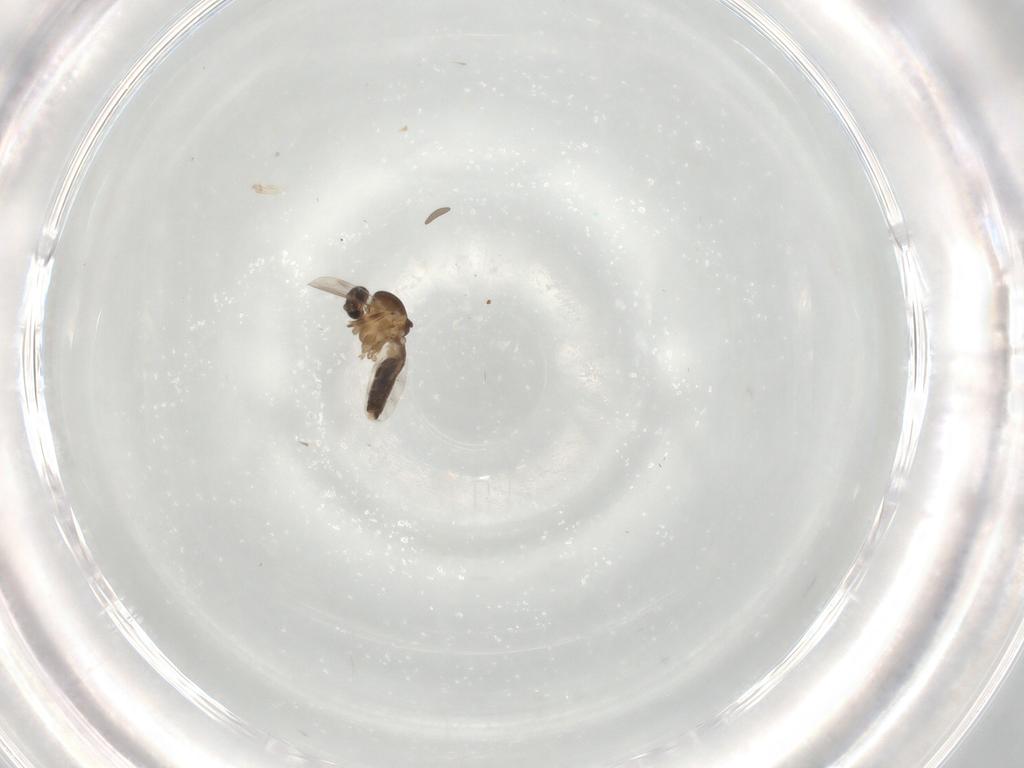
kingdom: Animalia
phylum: Arthropoda
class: Insecta
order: Diptera
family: Ceratopogonidae
